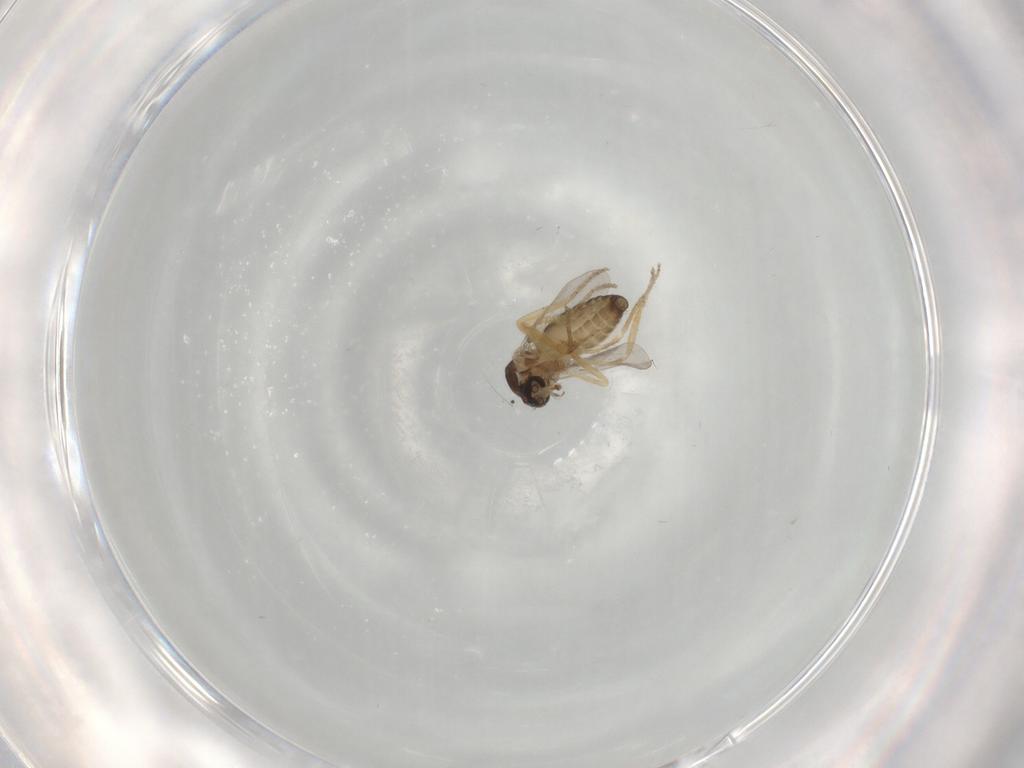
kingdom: Animalia
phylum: Arthropoda
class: Insecta
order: Diptera
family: Ceratopogonidae
